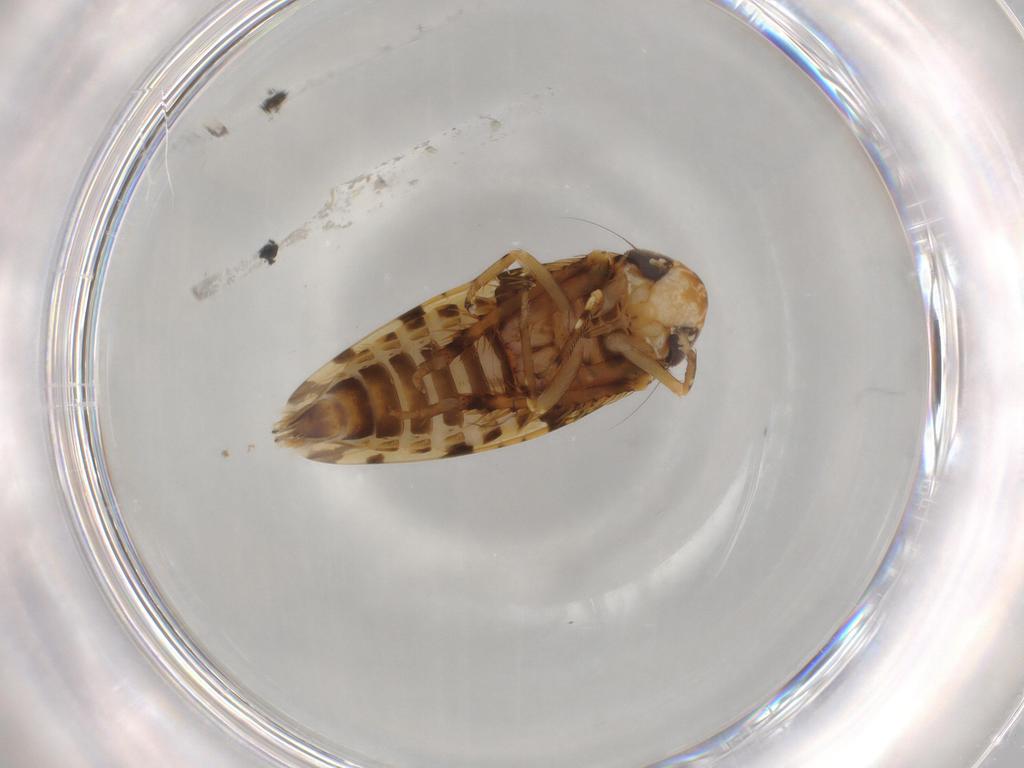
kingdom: Animalia
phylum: Arthropoda
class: Insecta
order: Hemiptera
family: Cicadellidae
